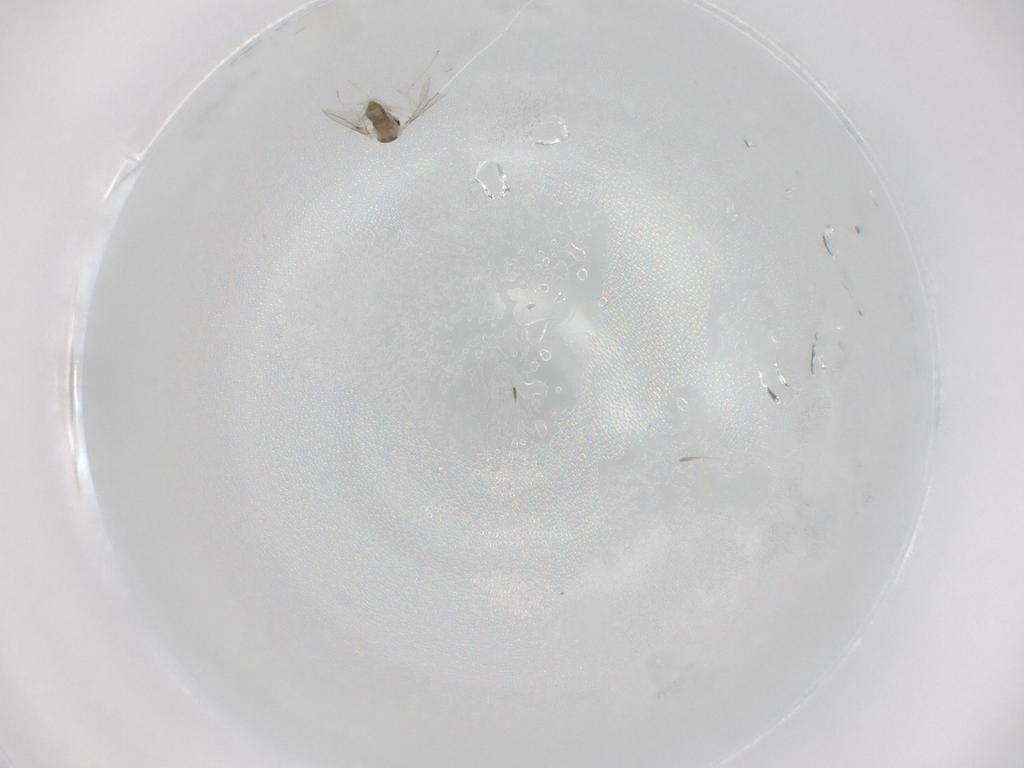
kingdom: Animalia
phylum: Arthropoda
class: Insecta
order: Diptera
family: Cecidomyiidae
